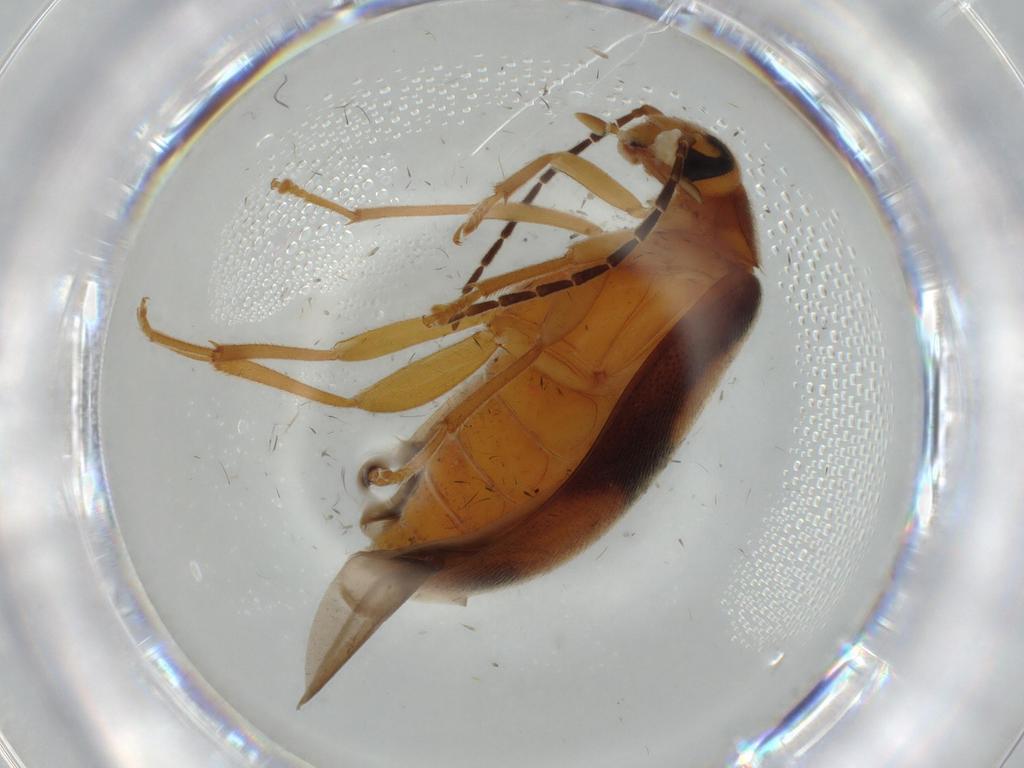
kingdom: Animalia
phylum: Arthropoda
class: Insecta
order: Coleoptera
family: Scraptiidae
